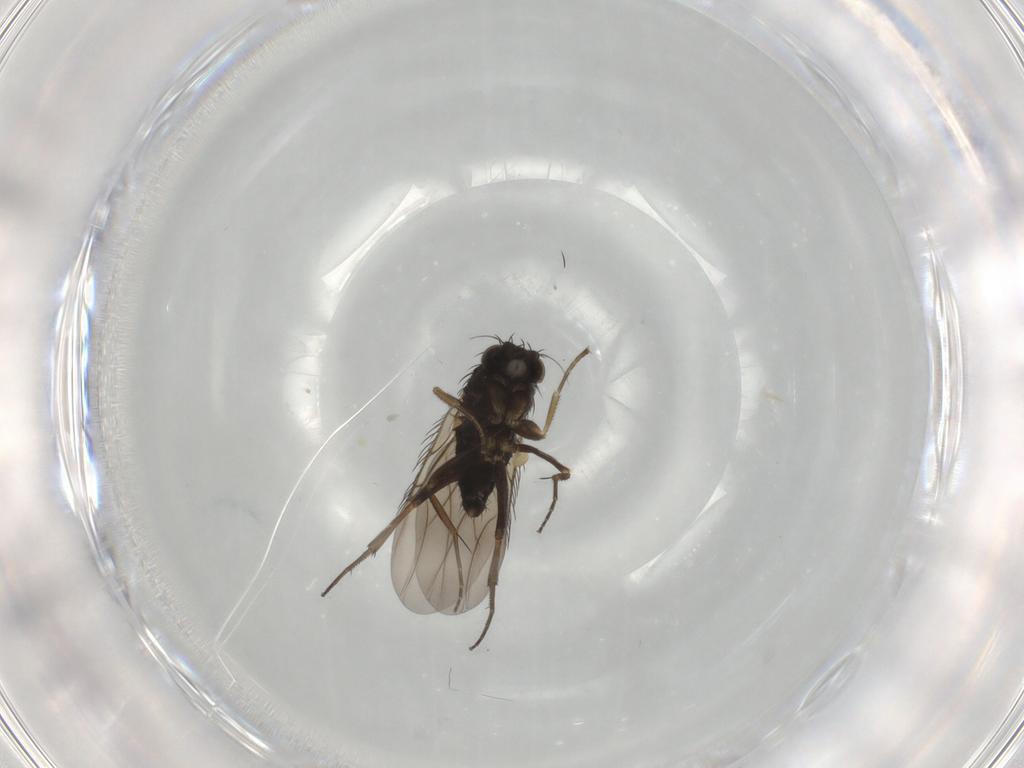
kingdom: Animalia
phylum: Arthropoda
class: Insecta
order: Diptera
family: Phoridae
